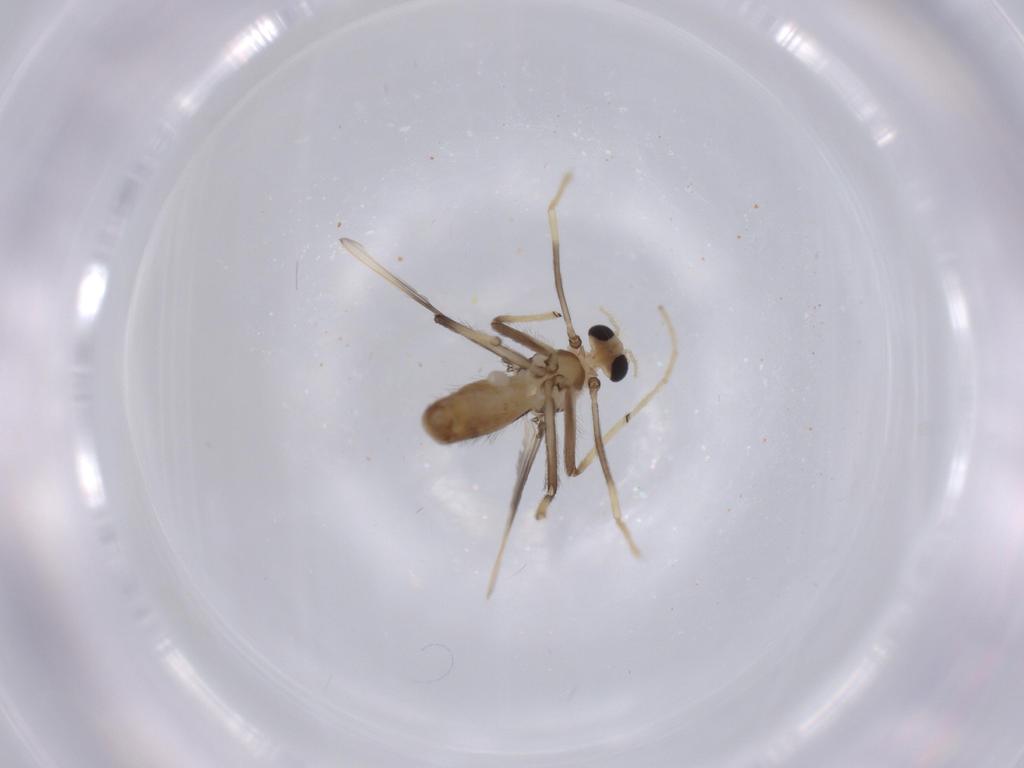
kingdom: Animalia
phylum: Arthropoda
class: Insecta
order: Diptera
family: Chironomidae
